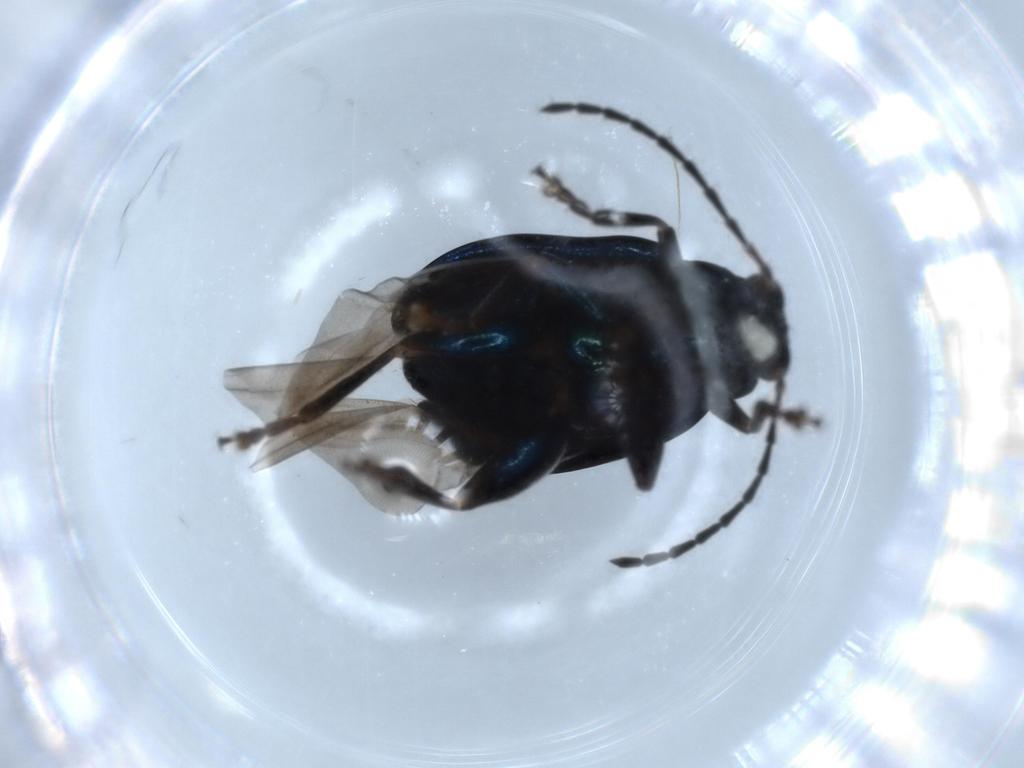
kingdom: Animalia
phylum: Arthropoda
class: Insecta
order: Coleoptera
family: Chrysomelidae
